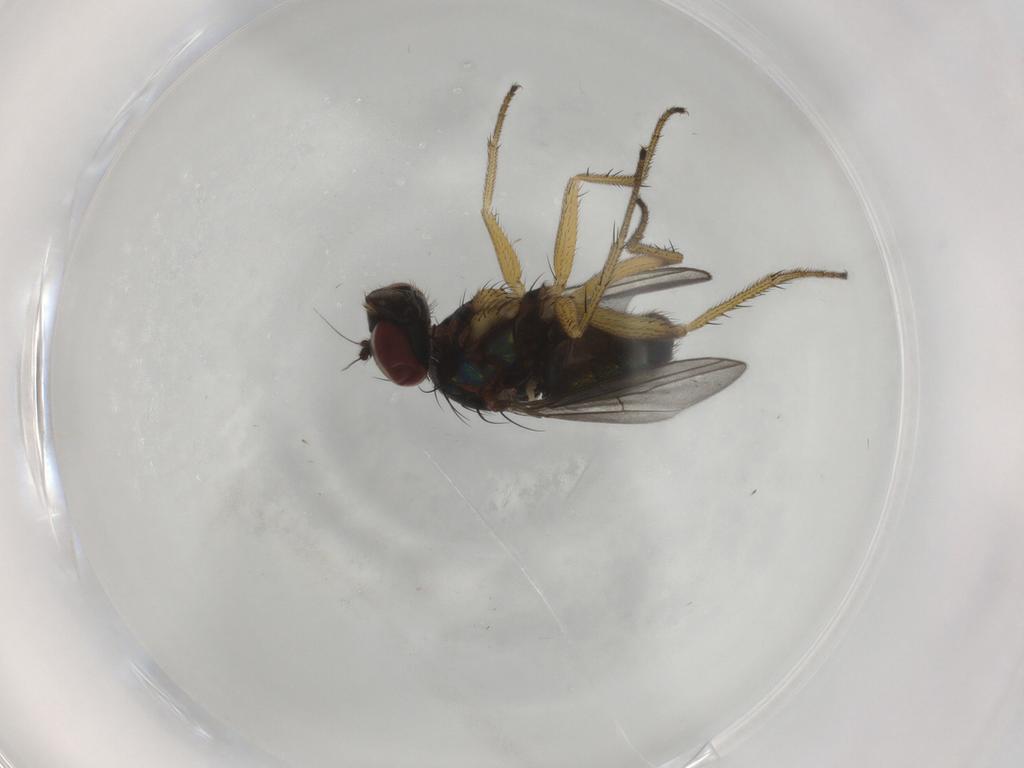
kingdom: Animalia
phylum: Arthropoda
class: Insecta
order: Diptera
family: Dolichopodidae
